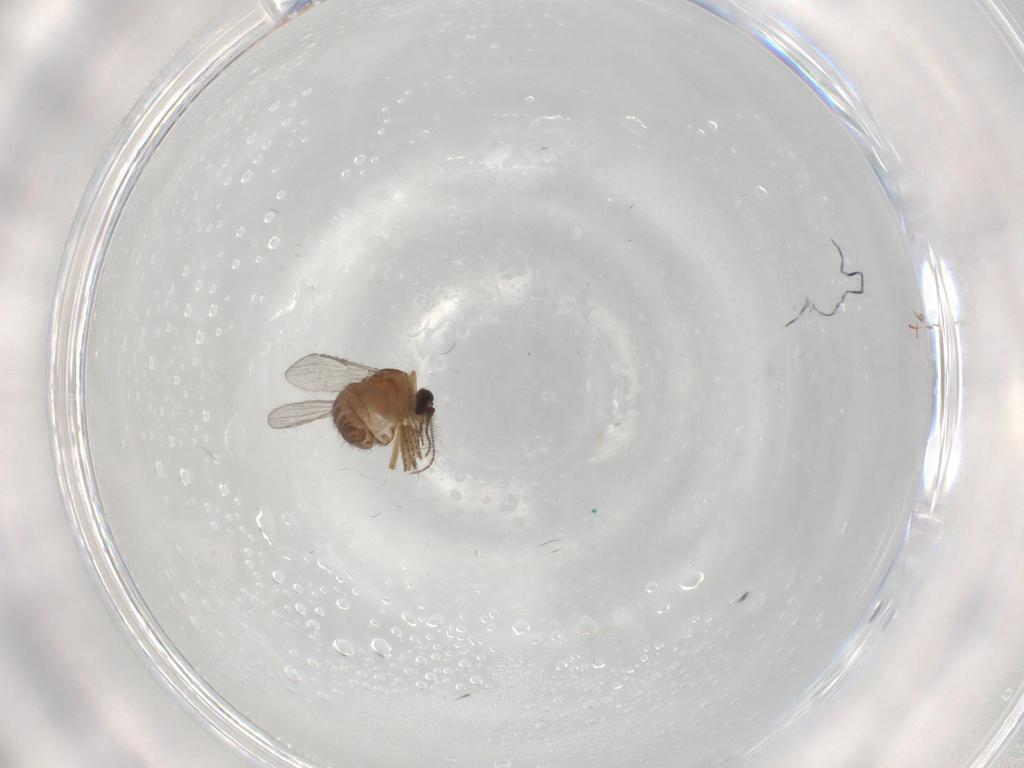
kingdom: Animalia
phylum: Arthropoda
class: Insecta
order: Diptera
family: Ceratopogonidae
